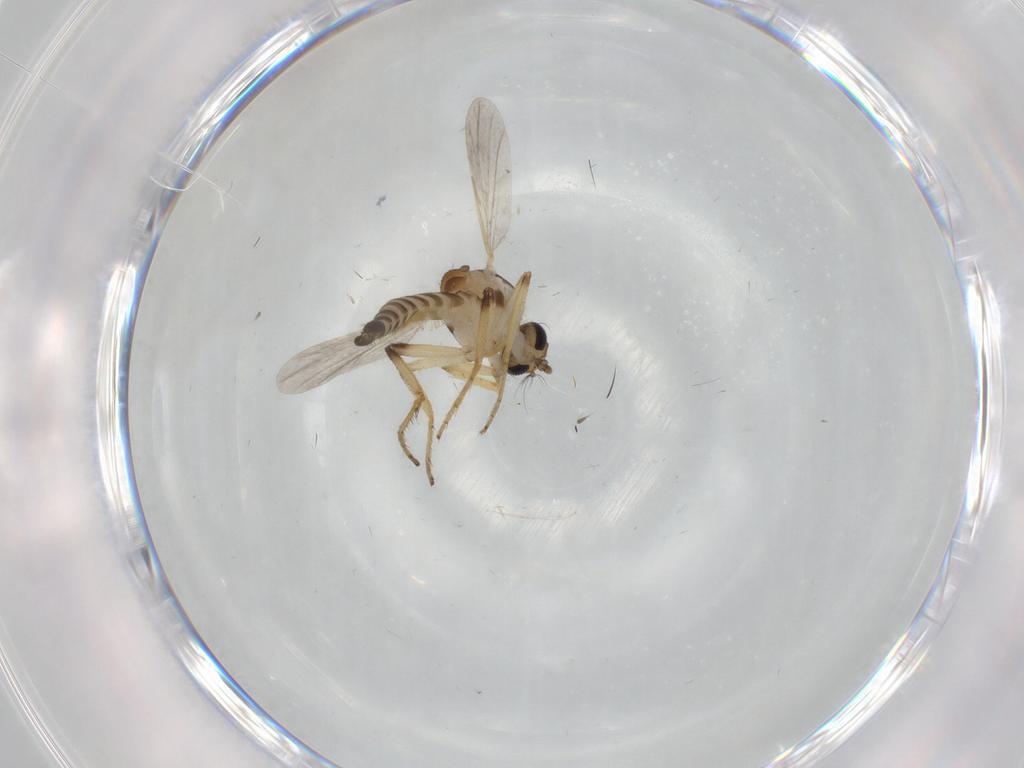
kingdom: Animalia
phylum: Arthropoda
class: Insecta
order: Diptera
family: Ceratopogonidae
